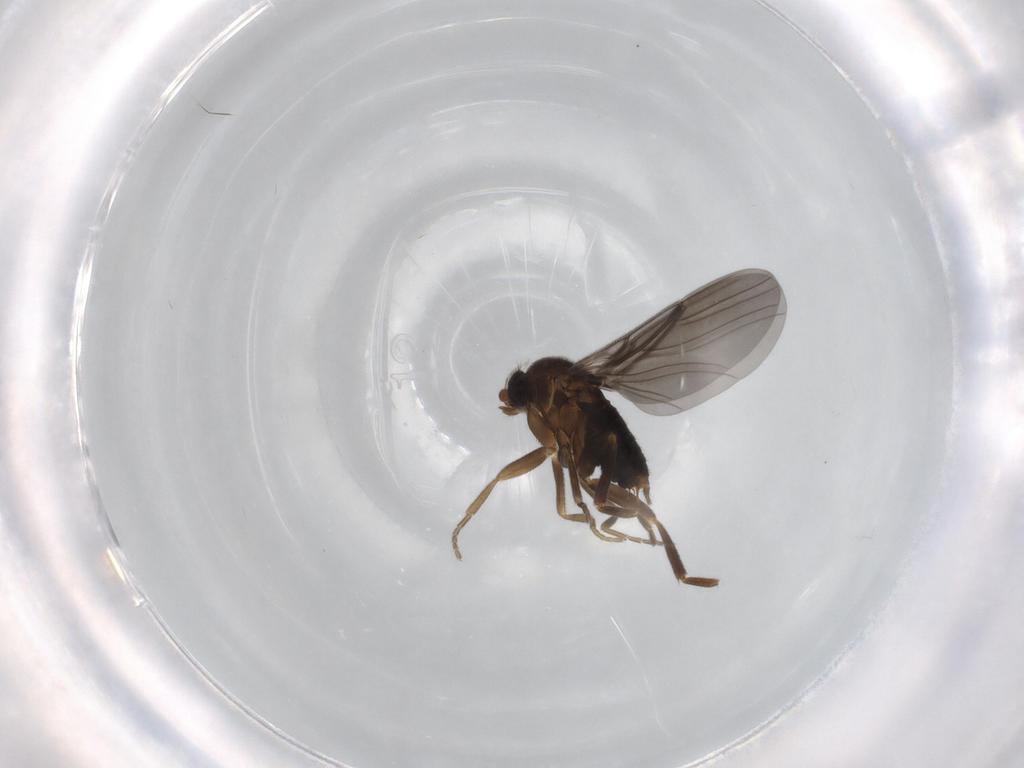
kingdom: Animalia
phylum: Arthropoda
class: Insecta
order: Diptera
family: Phoridae
